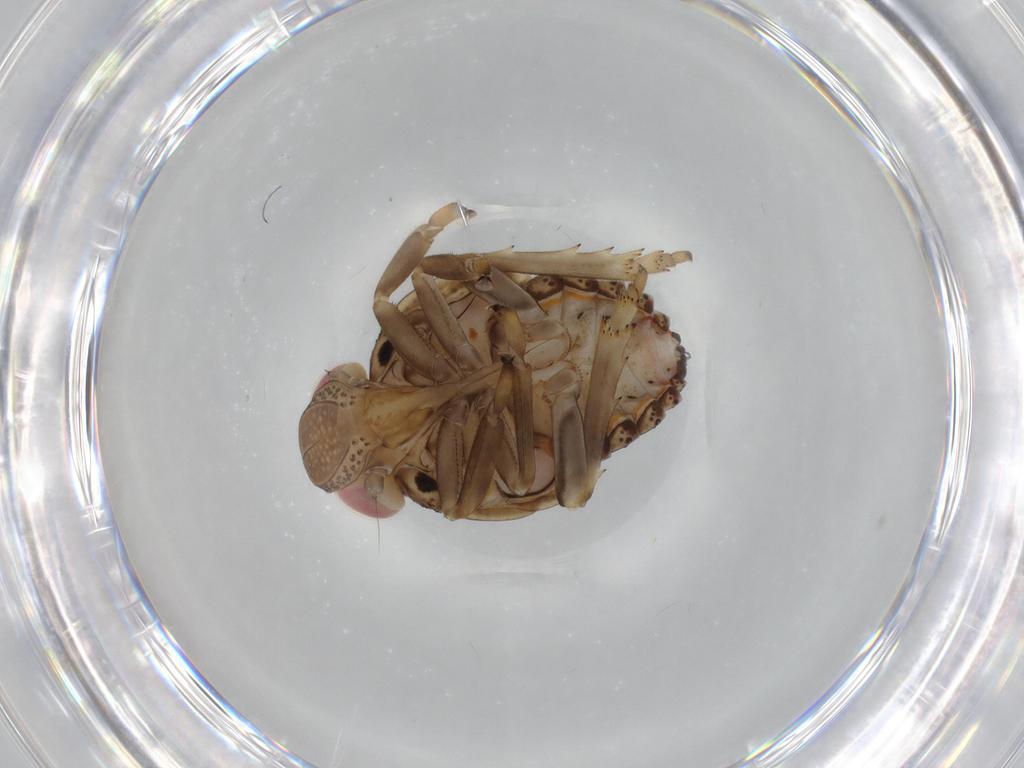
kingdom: Animalia
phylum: Arthropoda
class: Insecta
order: Hemiptera
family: Issidae
